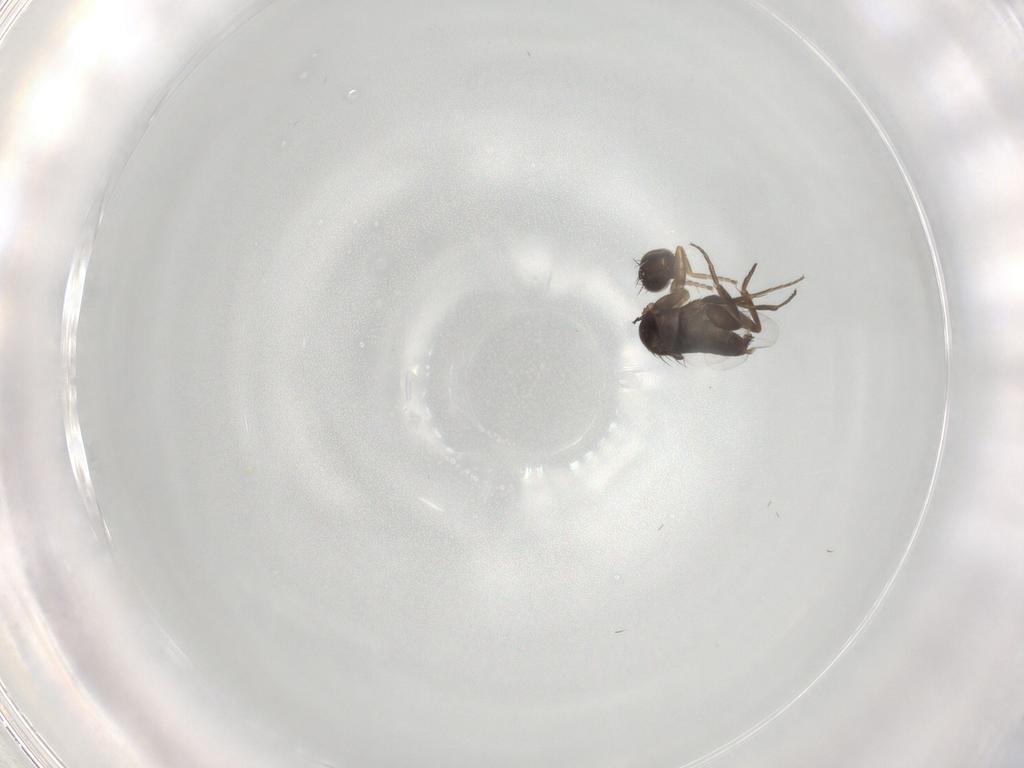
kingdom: Animalia
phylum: Arthropoda
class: Insecta
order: Diptera
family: Phoridae
